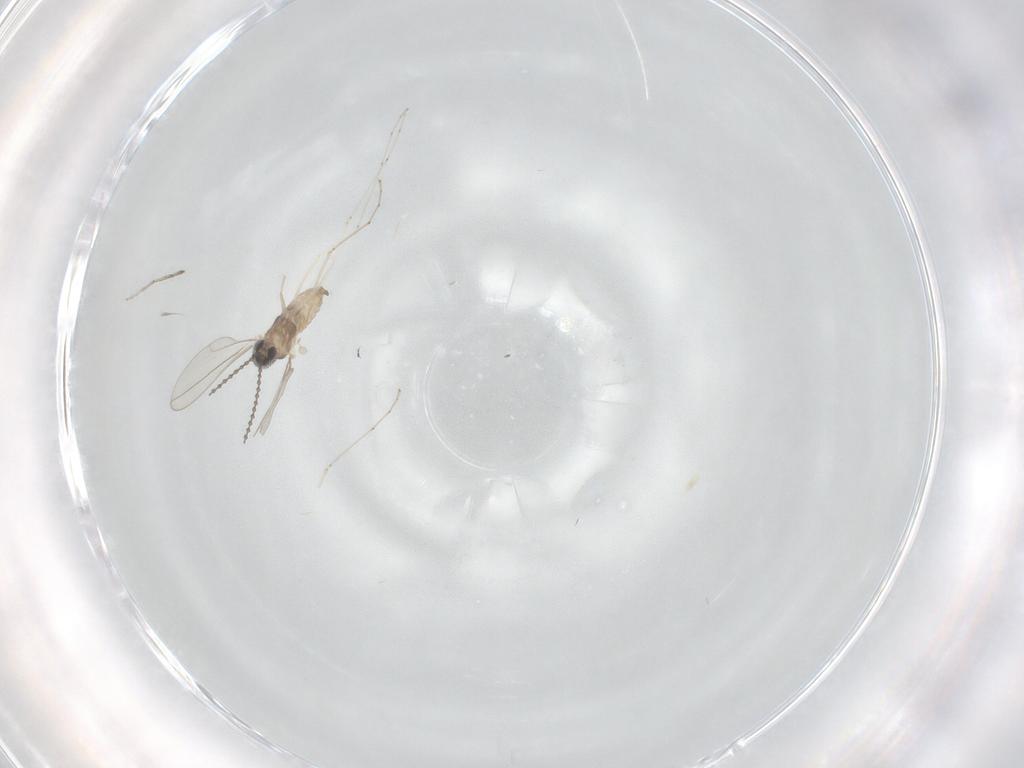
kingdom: Animalia
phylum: Arthropoda
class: Insecta
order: Diptera
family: Cecidomyiidae
